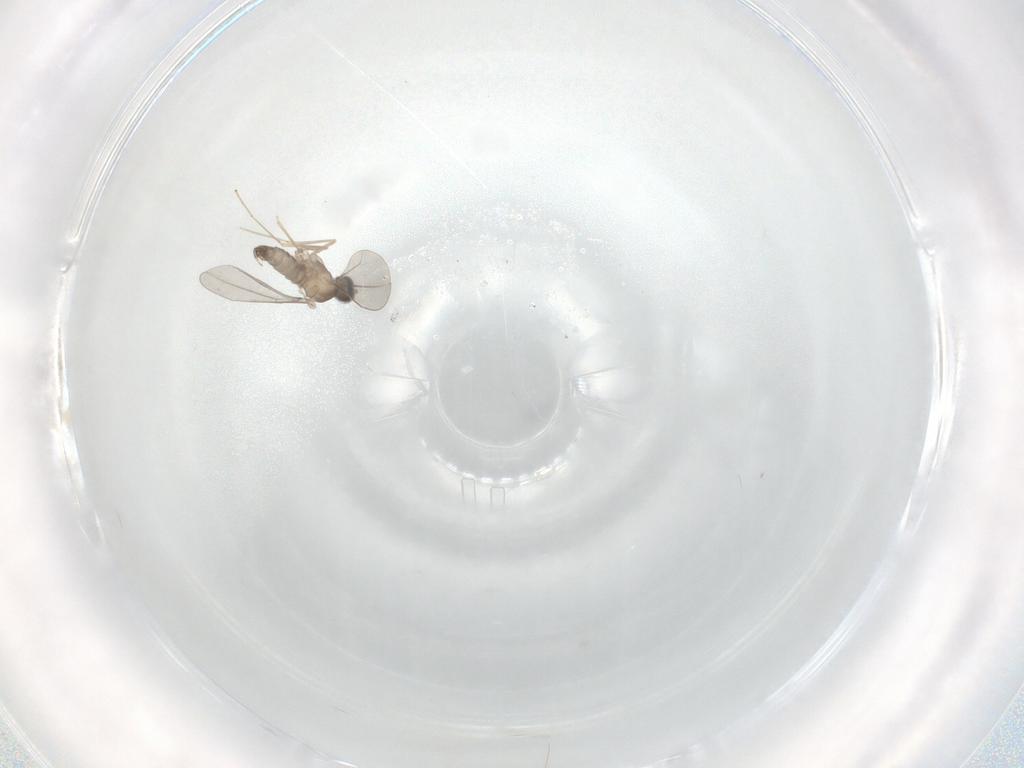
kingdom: Animalia
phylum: Arthropoda
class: Insecta
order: Diptera
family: Cecidomyiidae
